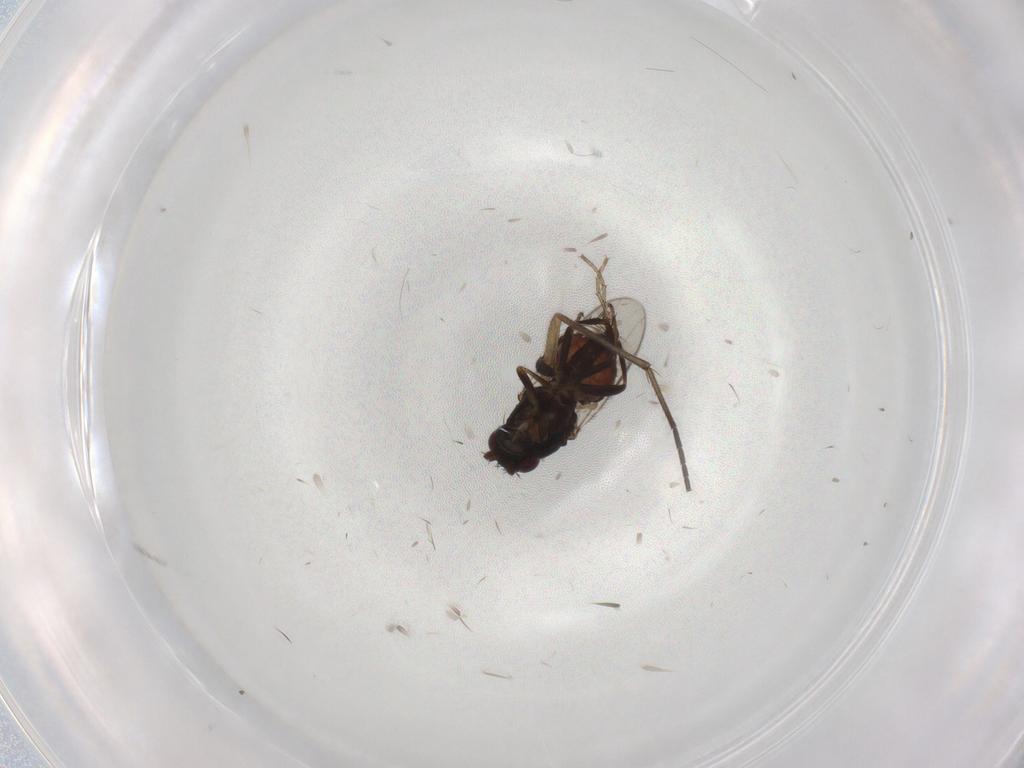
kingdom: Animalia
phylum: Arthropoda
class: Insecta
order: Diptera
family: Sphaeroceridae
